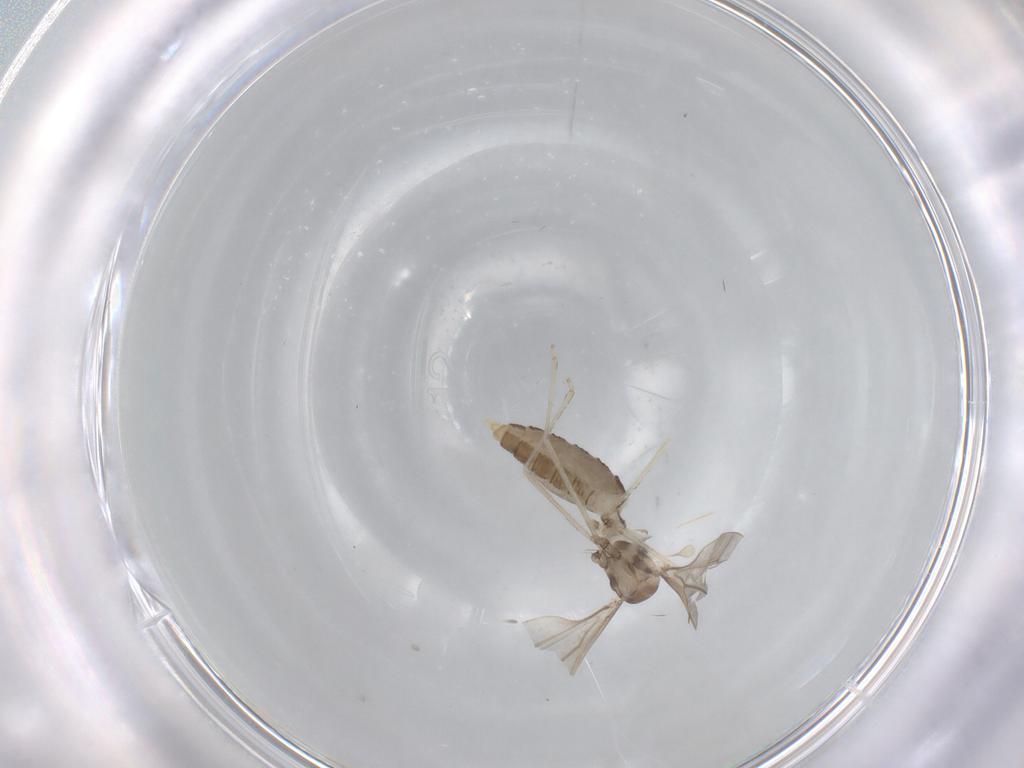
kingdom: Animalia
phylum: Arthropoda
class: Insecta
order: Diptera
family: Cecidomyiidae
